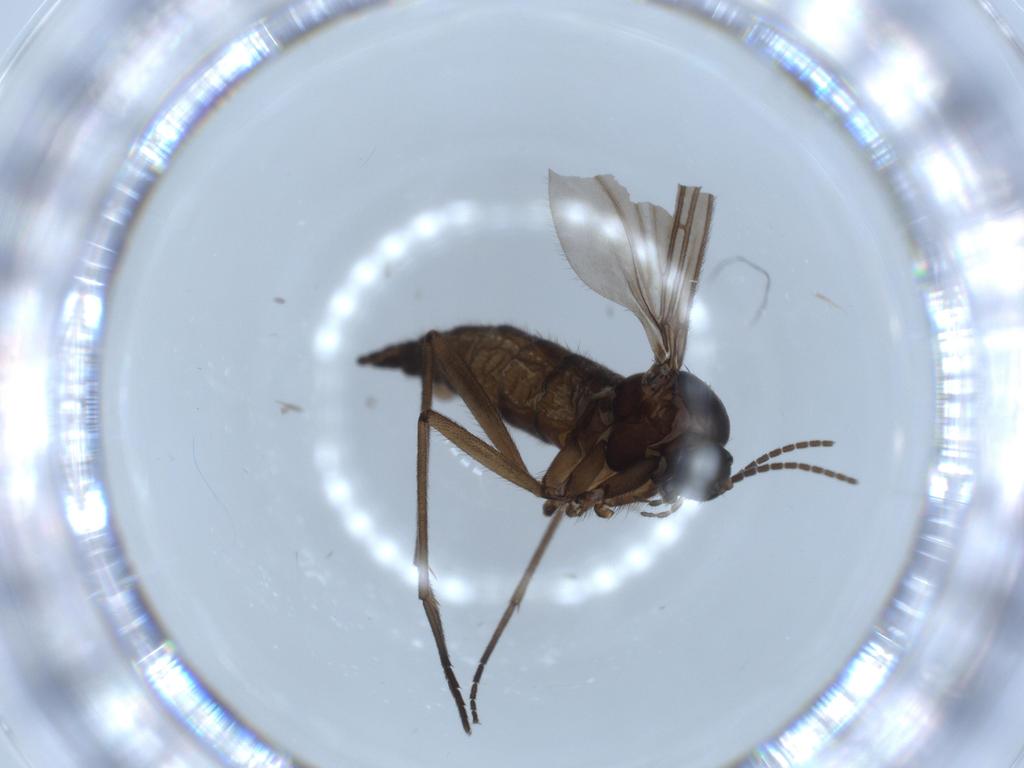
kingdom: Animalia
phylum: Arthropoda
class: Insecta
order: Diptera
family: Sciaridae
